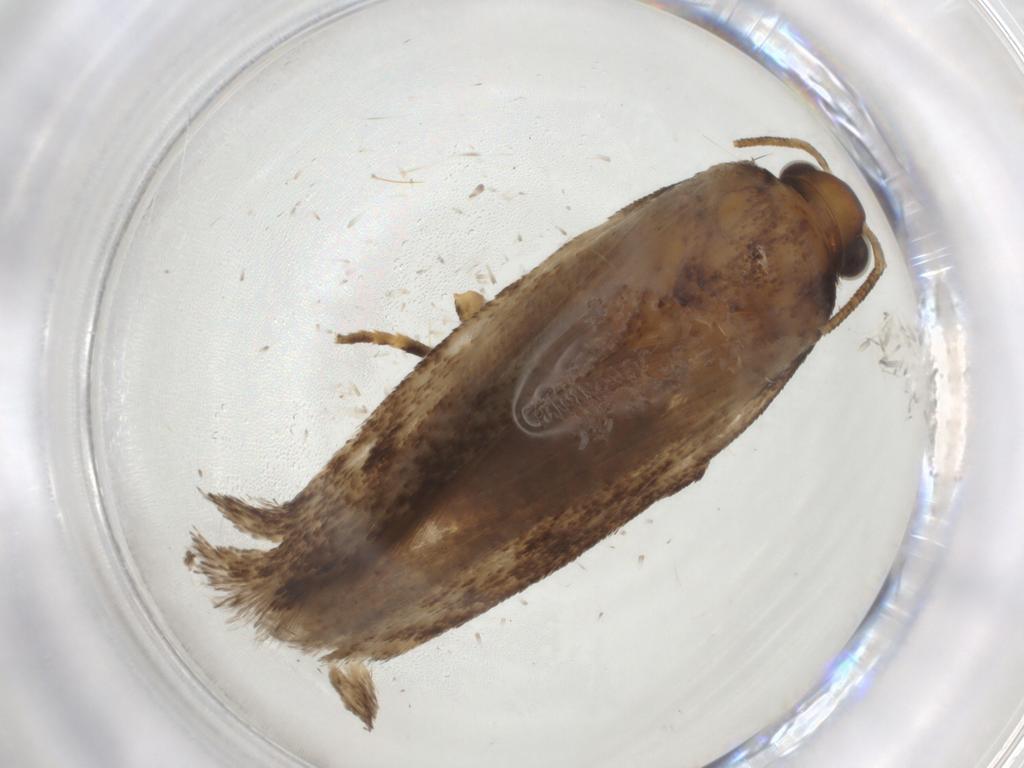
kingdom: Animalia
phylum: Arthropoda
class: Insecta
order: Lepidoptera
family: Gelechiidae
